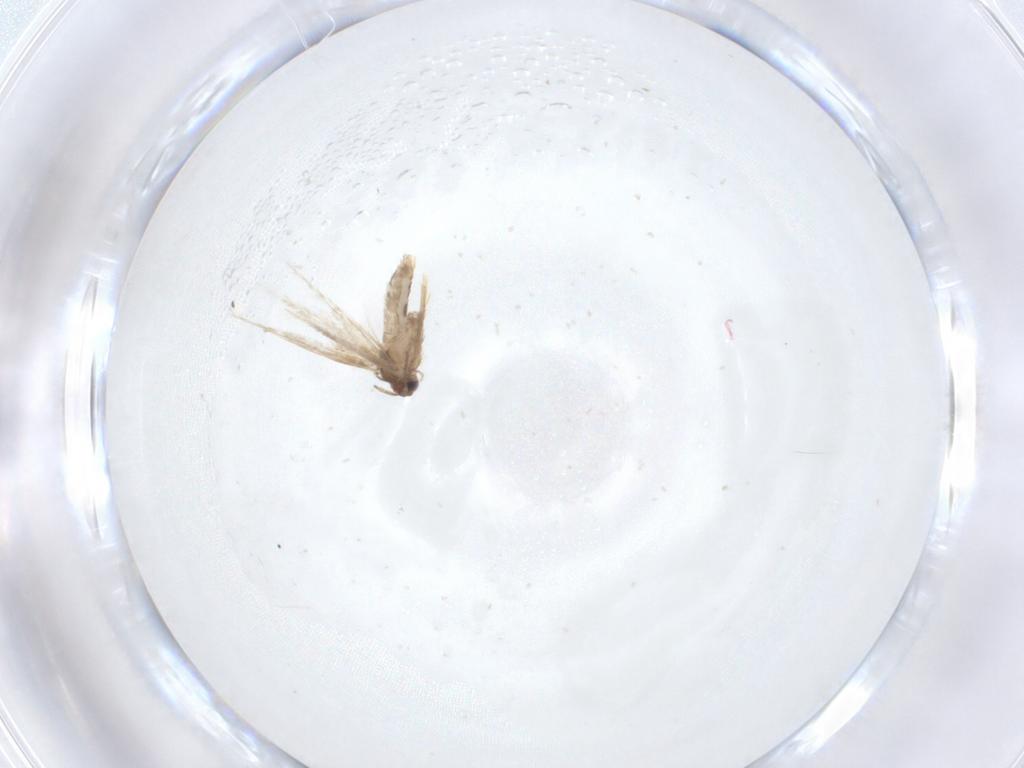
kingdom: Animalia
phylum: Arthropoda
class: Insecta
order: Lepidoptera
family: Nepticulidae
